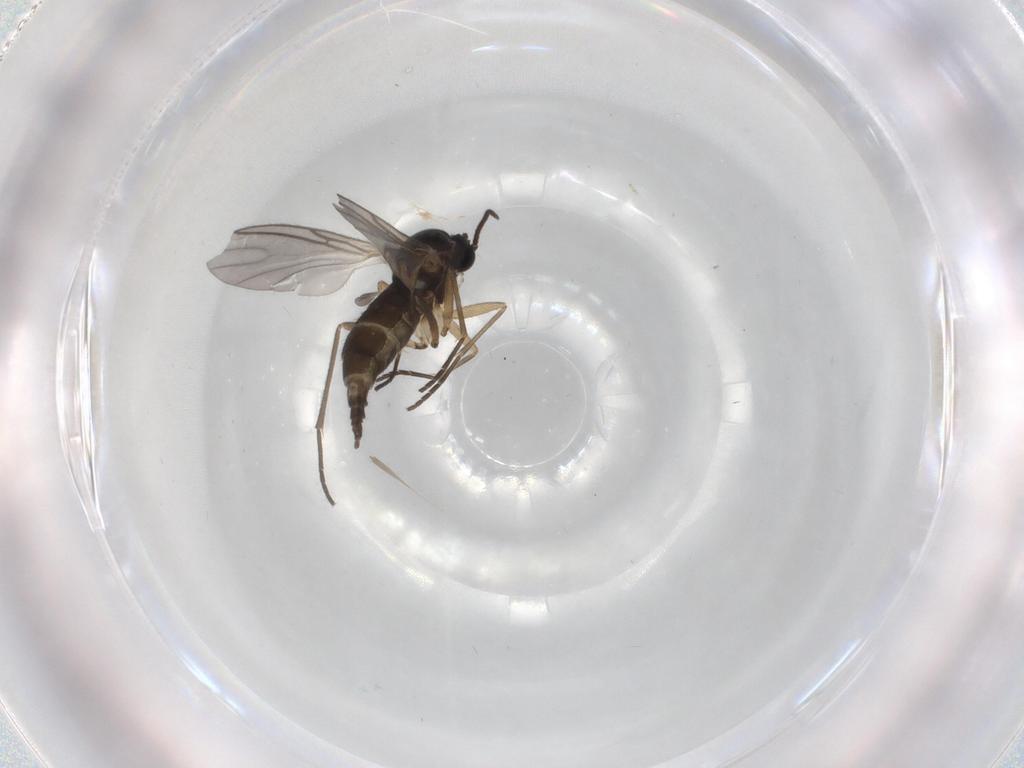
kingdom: Animalia
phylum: Arthropoda
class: Insecta
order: Diptera
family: Sciaridae
